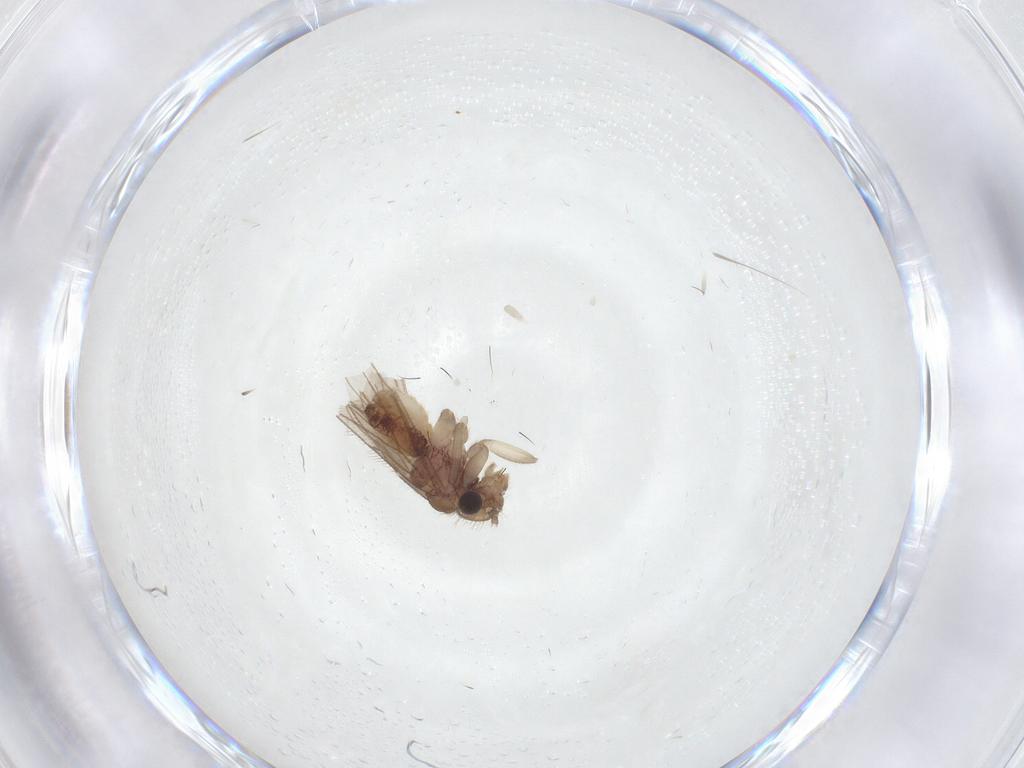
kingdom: Animalia
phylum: Arthropoda
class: Insecta
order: Psocodea
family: Cladiopsocidae
